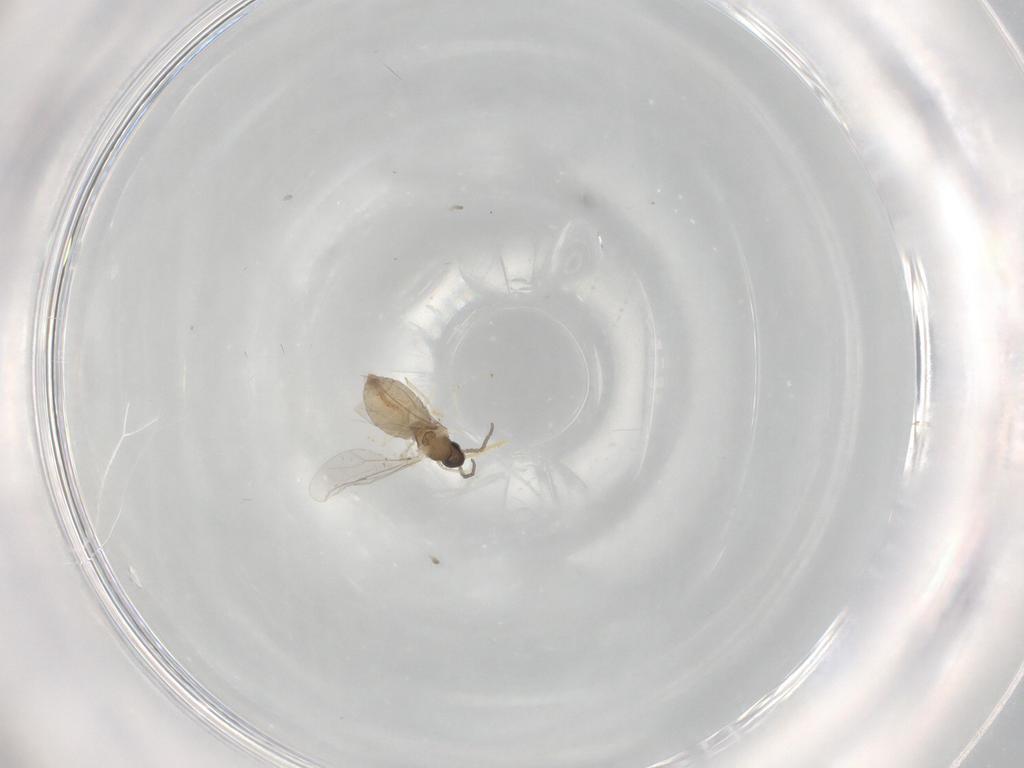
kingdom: Animalia
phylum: Arthropoda
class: Insecta
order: Diptera
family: Cecidomyiidae
